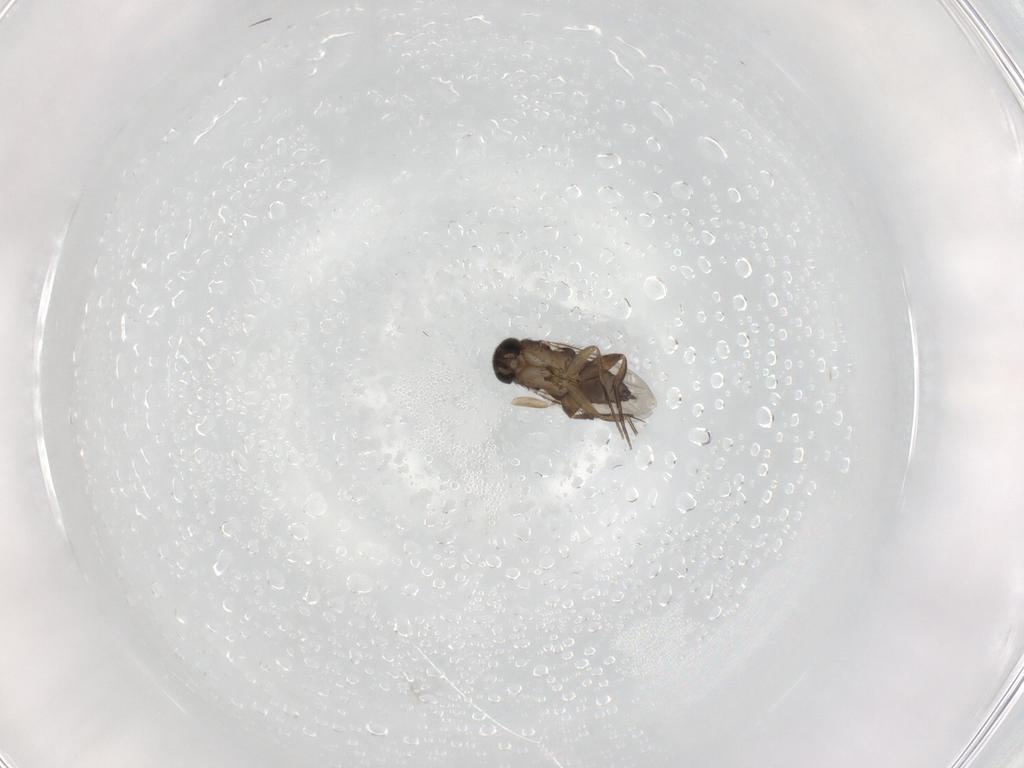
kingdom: Animalia
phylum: Arthropoda
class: Insecta
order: Diptera
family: Phoridae
